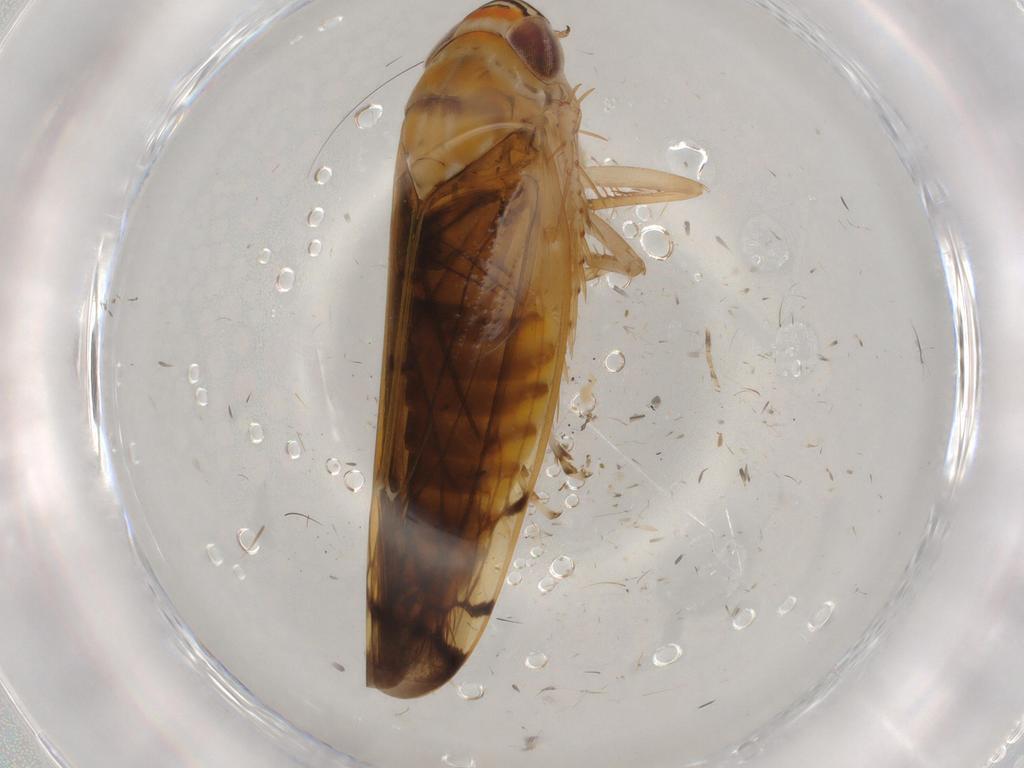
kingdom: Animalia
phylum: Arthropoda
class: Insecta
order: Hemiptera
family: Cicadellidae
